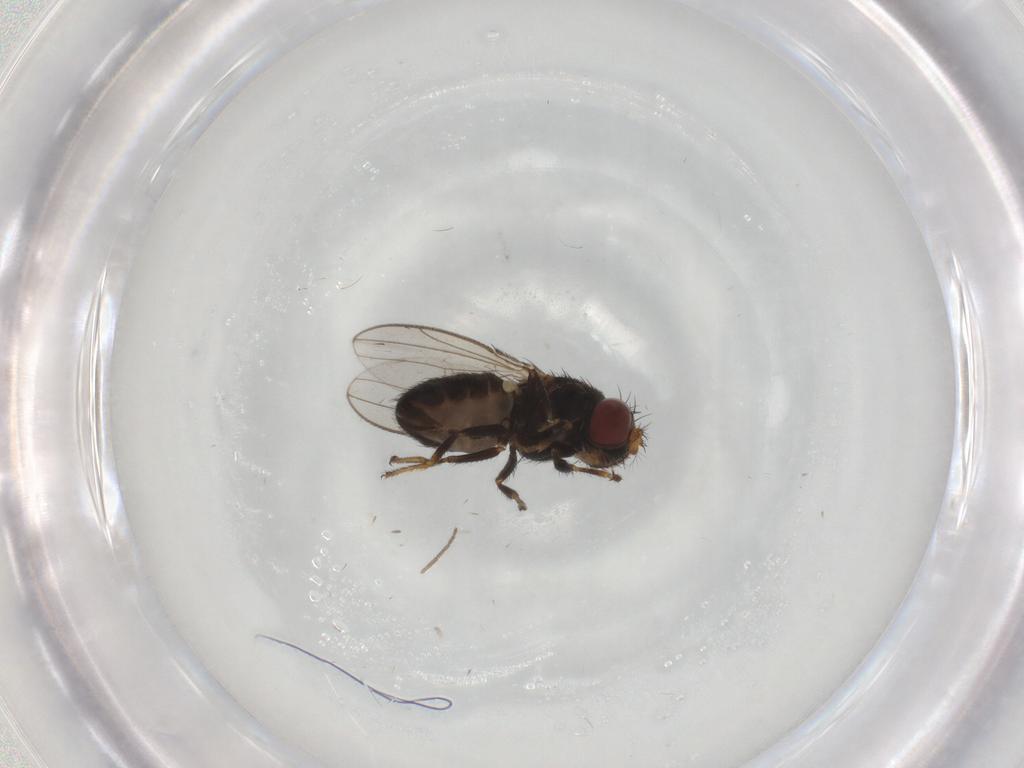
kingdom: Animalia
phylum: Arthropoda
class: Insecta
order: Diptera
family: Ephydridae
